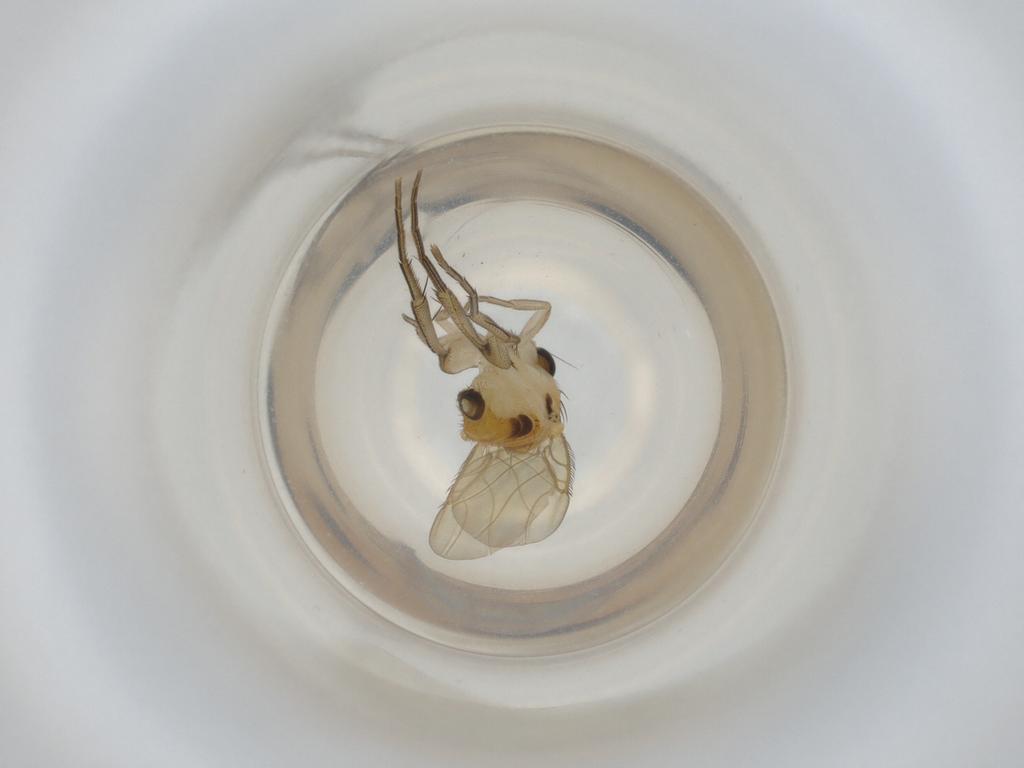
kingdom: Animalia
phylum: Arthropoda
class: Insecta
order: Diptera
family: Phoridae
